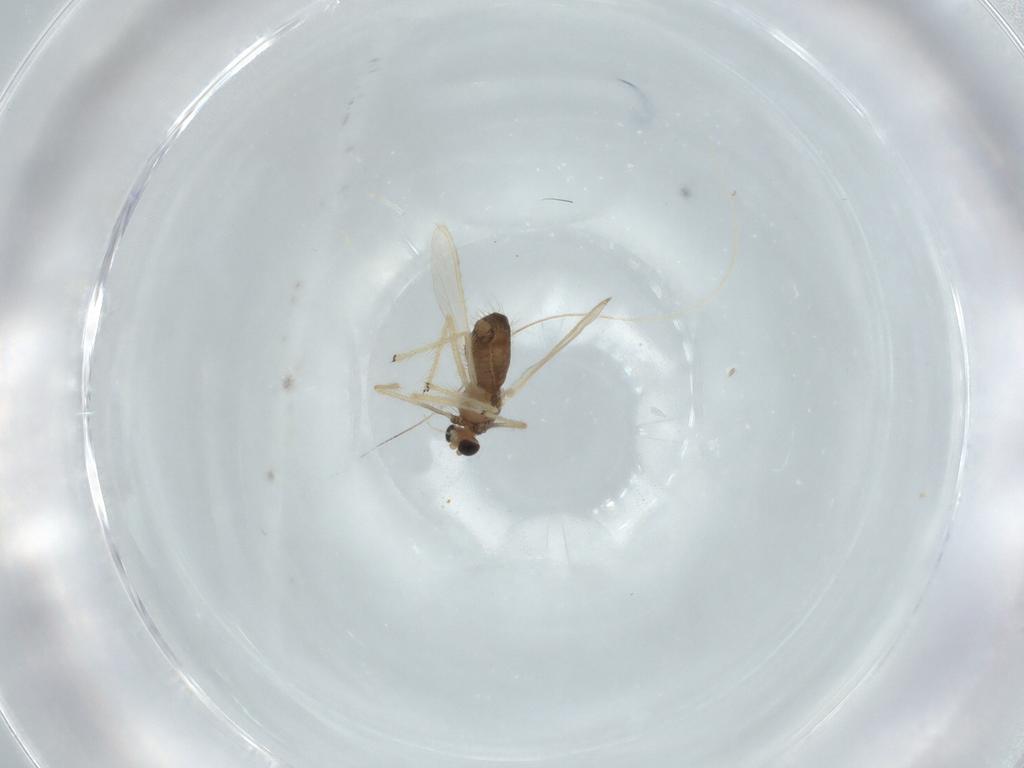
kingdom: Animalia
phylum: Arthropoda
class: Insecta
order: Diptera
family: Chironomidae
